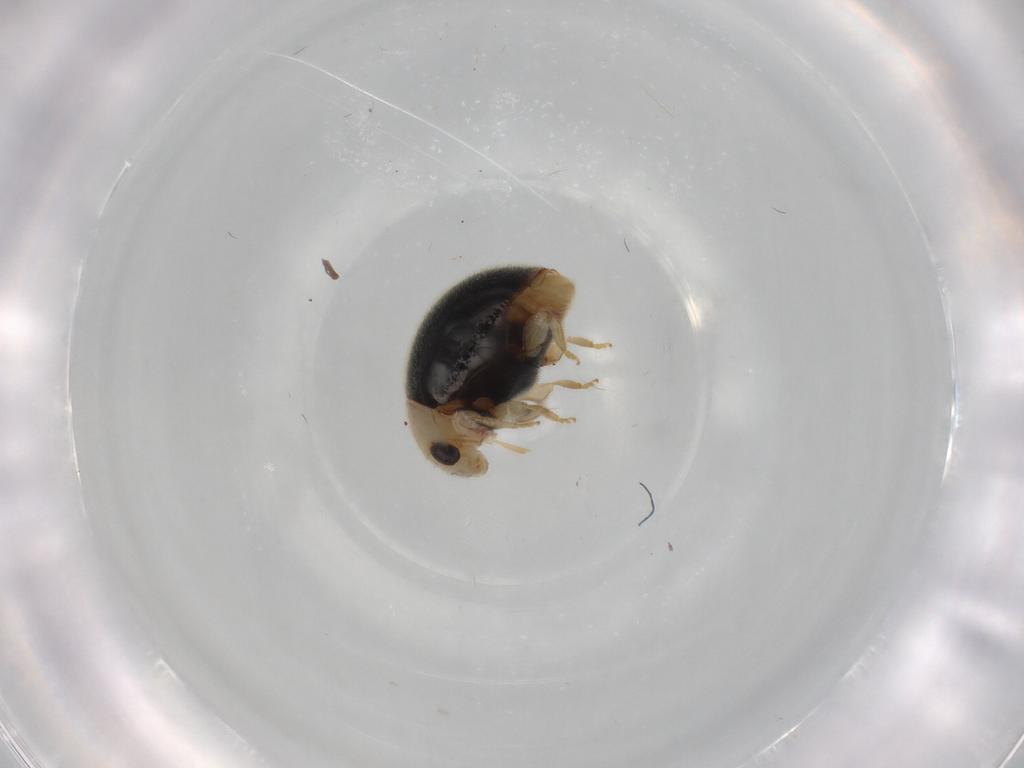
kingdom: Animalia
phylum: Arthropoda
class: Insecta
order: Coleoptera
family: Coccinellidae
